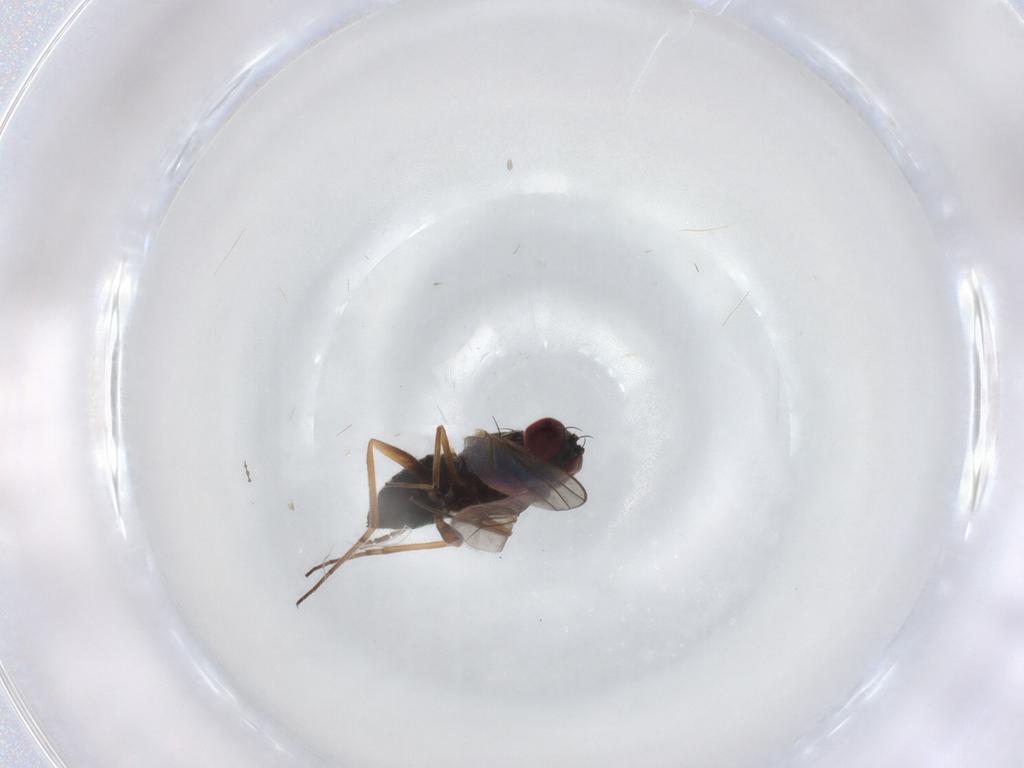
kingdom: Animalia
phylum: Arthropoda
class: Insecta
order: Diptera
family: Dolichopodidae
